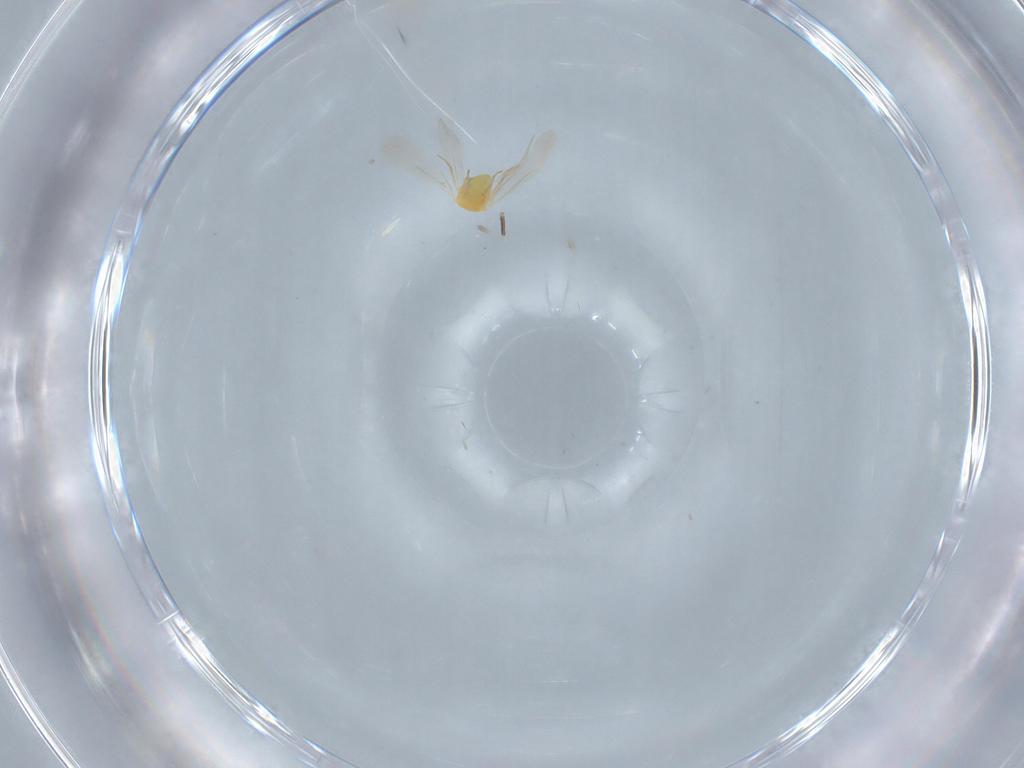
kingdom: Animalia
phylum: Arthropoda
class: Insecta
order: Hemiptera
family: Aleyrodidae
